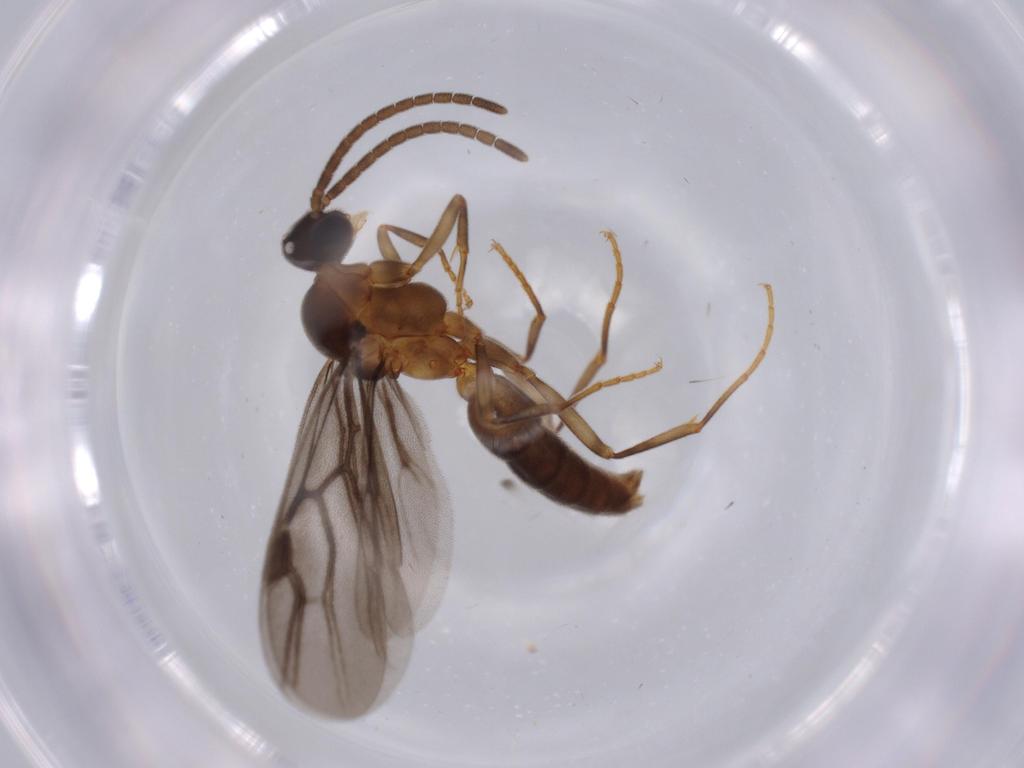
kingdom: Animalia
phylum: Arthropoda
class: Insecta
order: Hymenoptera
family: Formicidae
